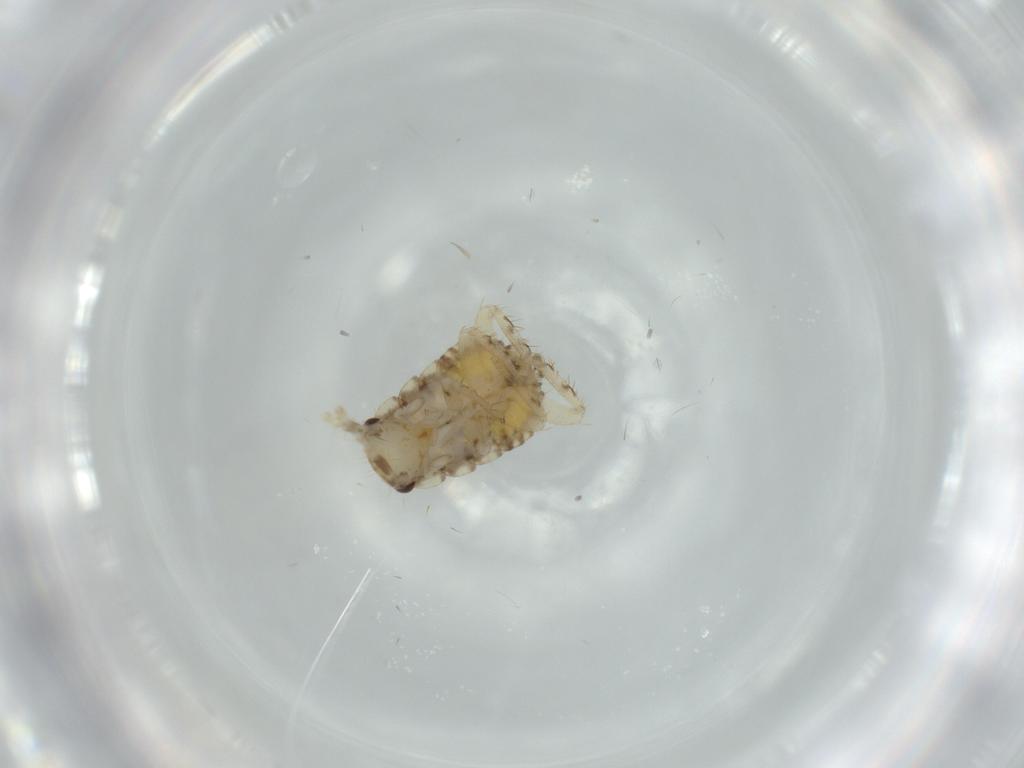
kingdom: Animalia
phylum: Arthropoda
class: Insecta
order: Blattodea
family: Ectobiidae
